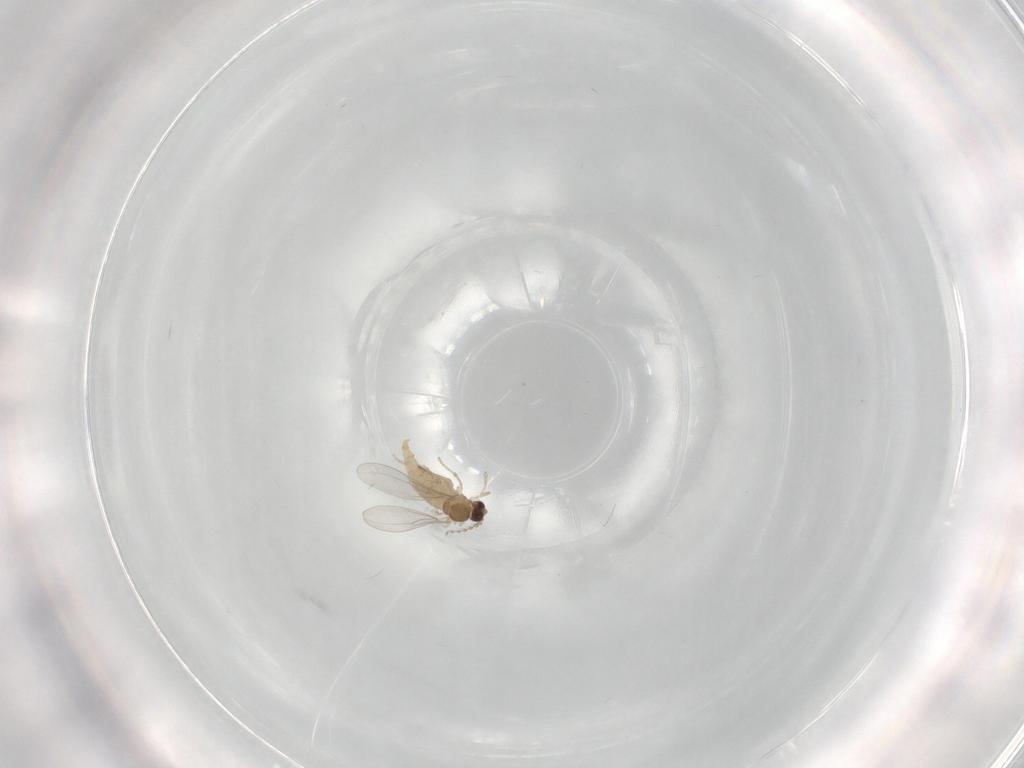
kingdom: Animalia
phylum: Arthropoda
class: Insecta
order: Diptera
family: Cecidomyiidae
